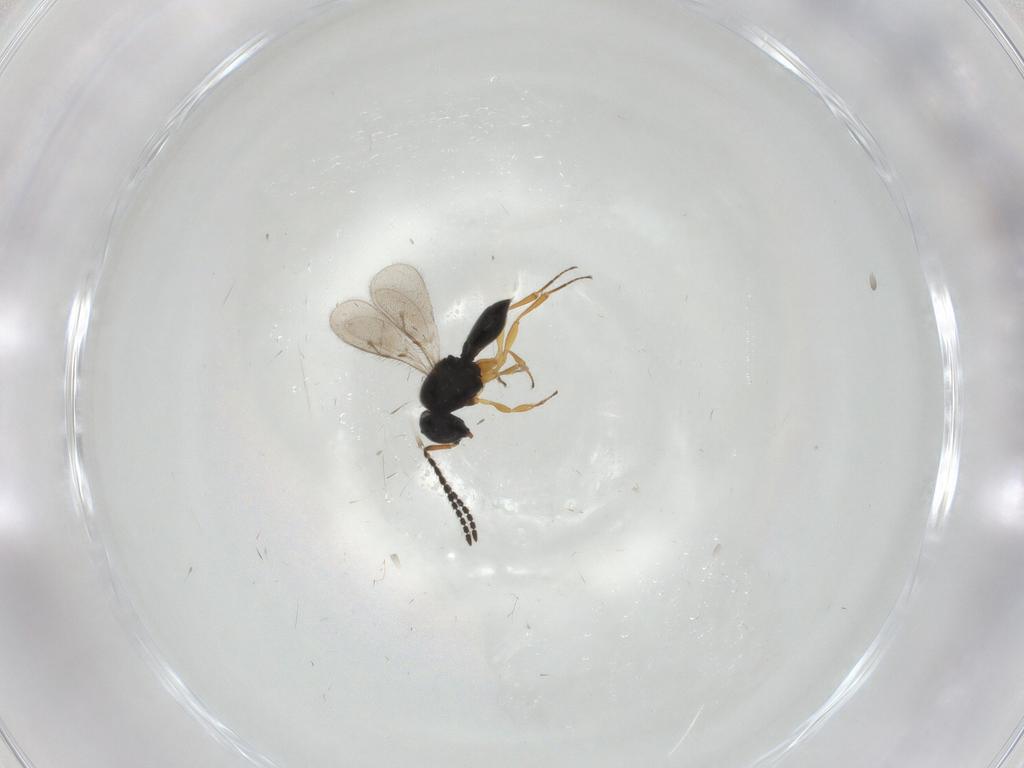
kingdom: Animalia
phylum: Arthropoda
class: Insecta
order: Hymenoptera
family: Scelionidae
